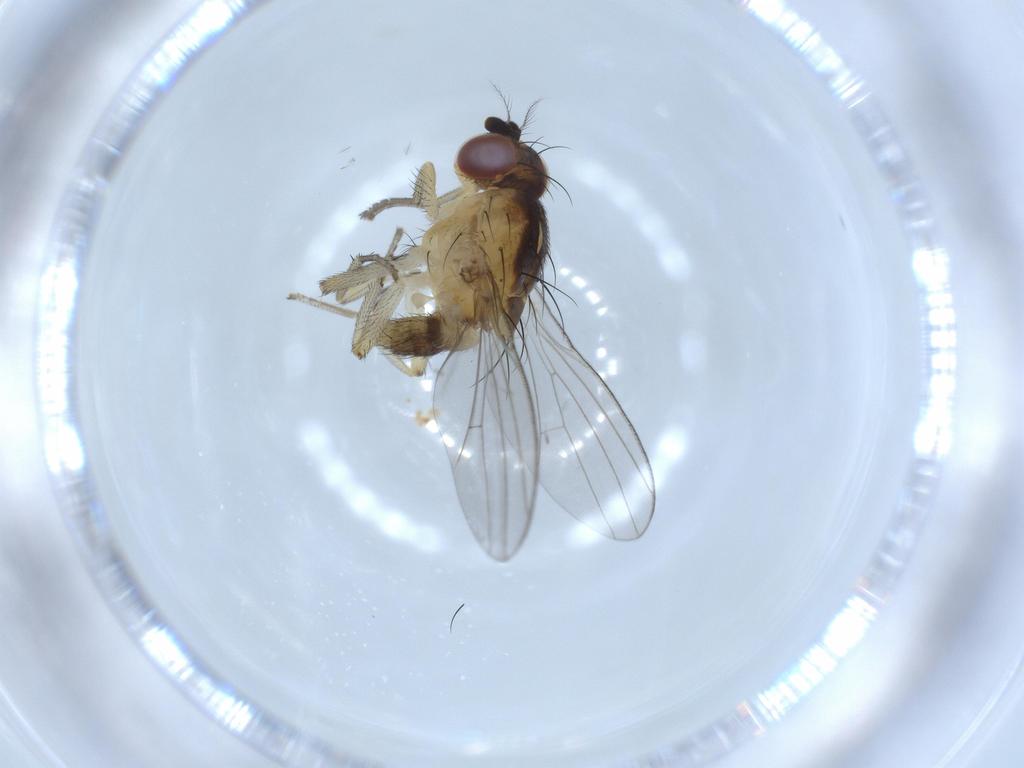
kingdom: Animalia
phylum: Arthropoda
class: Insecta
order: Diptera
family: Lauxaniidae
